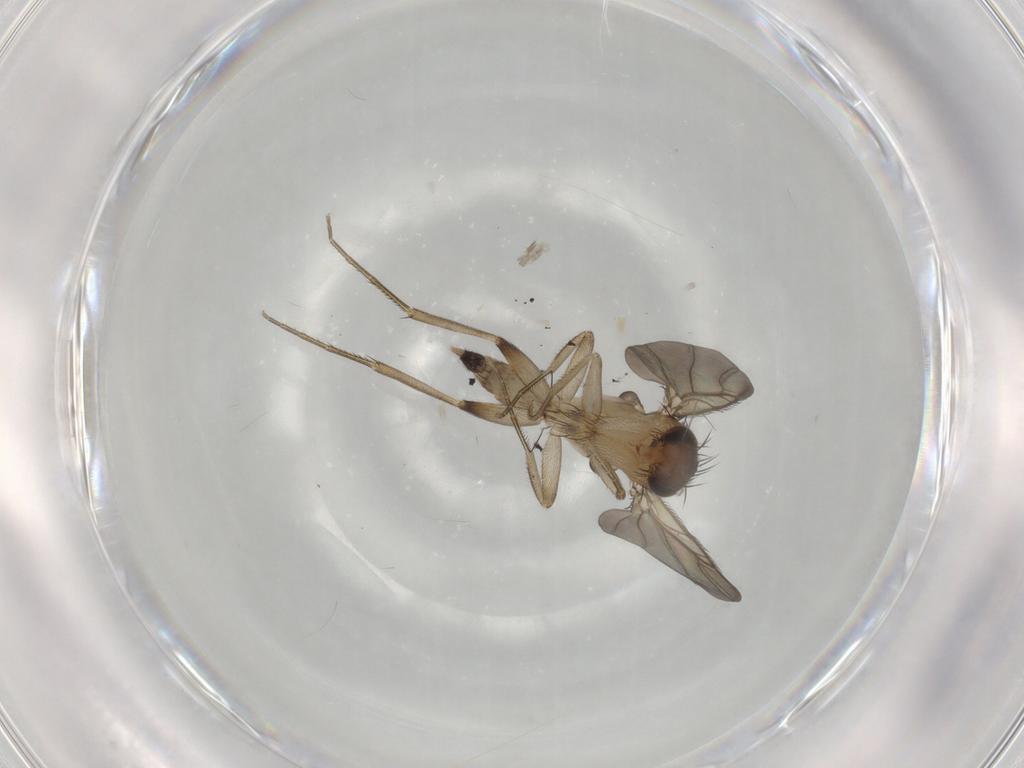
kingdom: Animalia
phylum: Arthropoda
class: Insecta
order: Diptera
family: Phoridae
